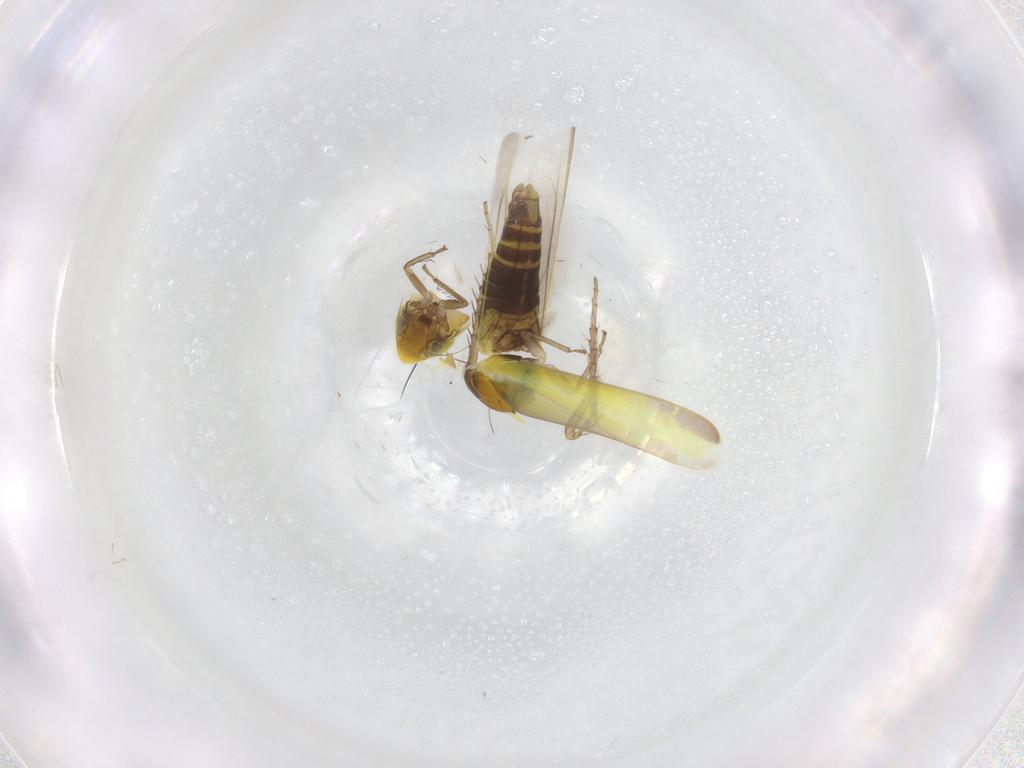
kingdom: Animalia
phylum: Arthropoda
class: Insecta
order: Hemiptera
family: Cicadellidae
